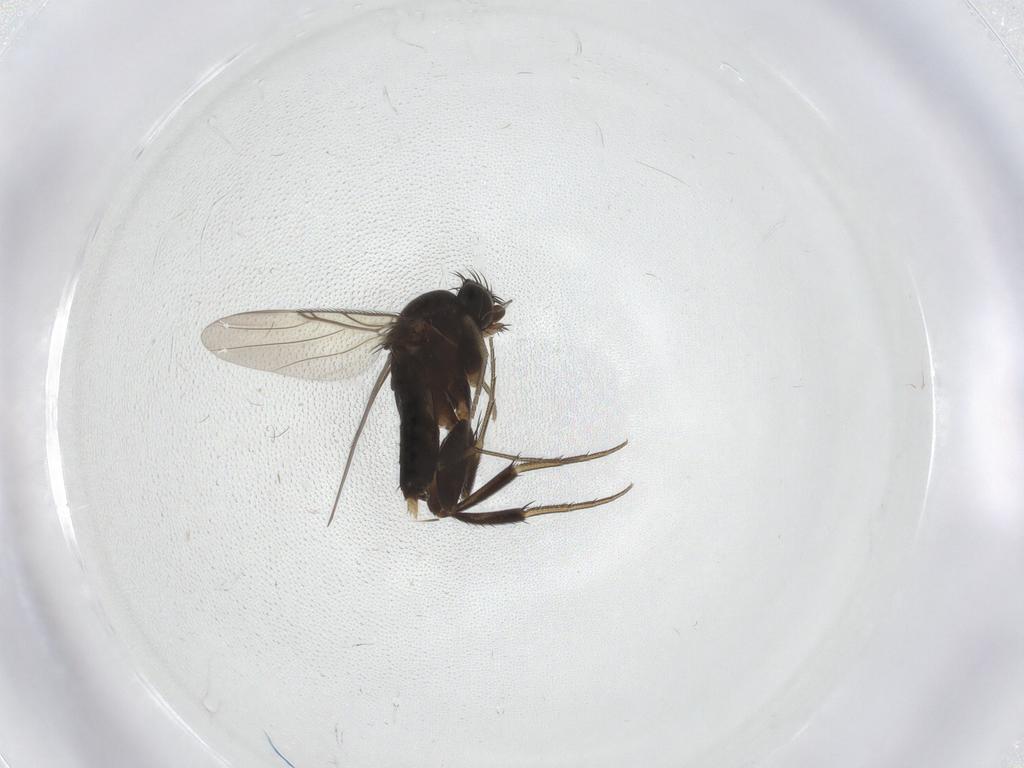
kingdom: Animalia
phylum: Arthropoda
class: Insecta
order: Diptera
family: Phoridae
